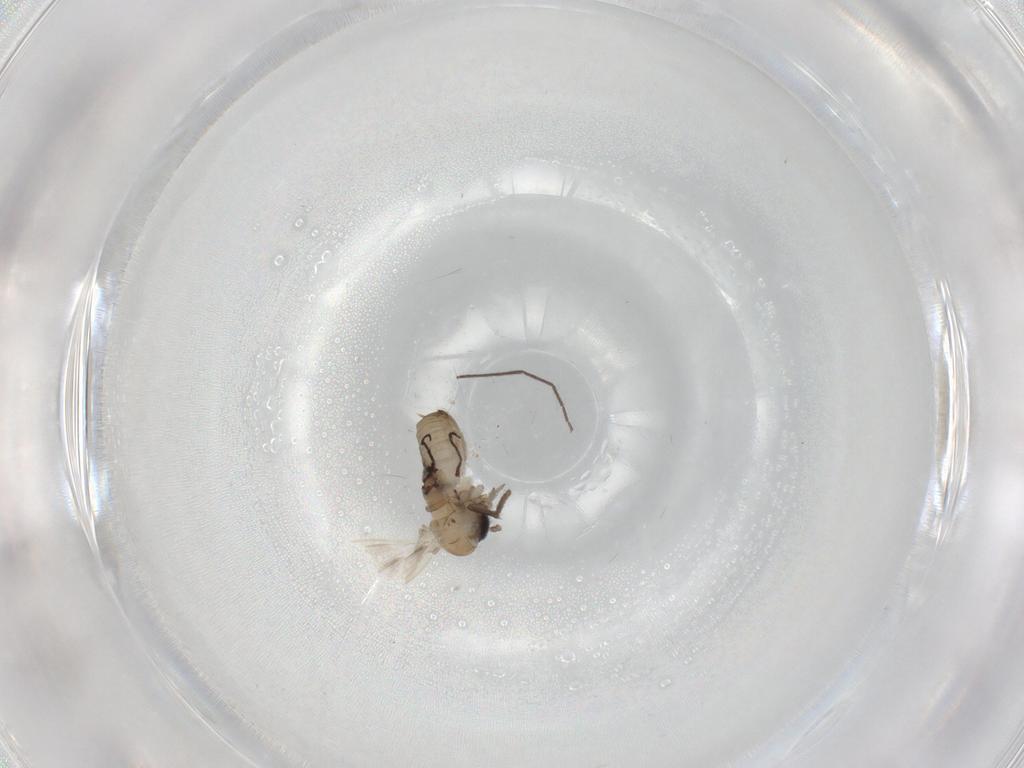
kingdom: Animalia
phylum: Arthropoda
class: Insecta
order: Diptera
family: Psychodidae
